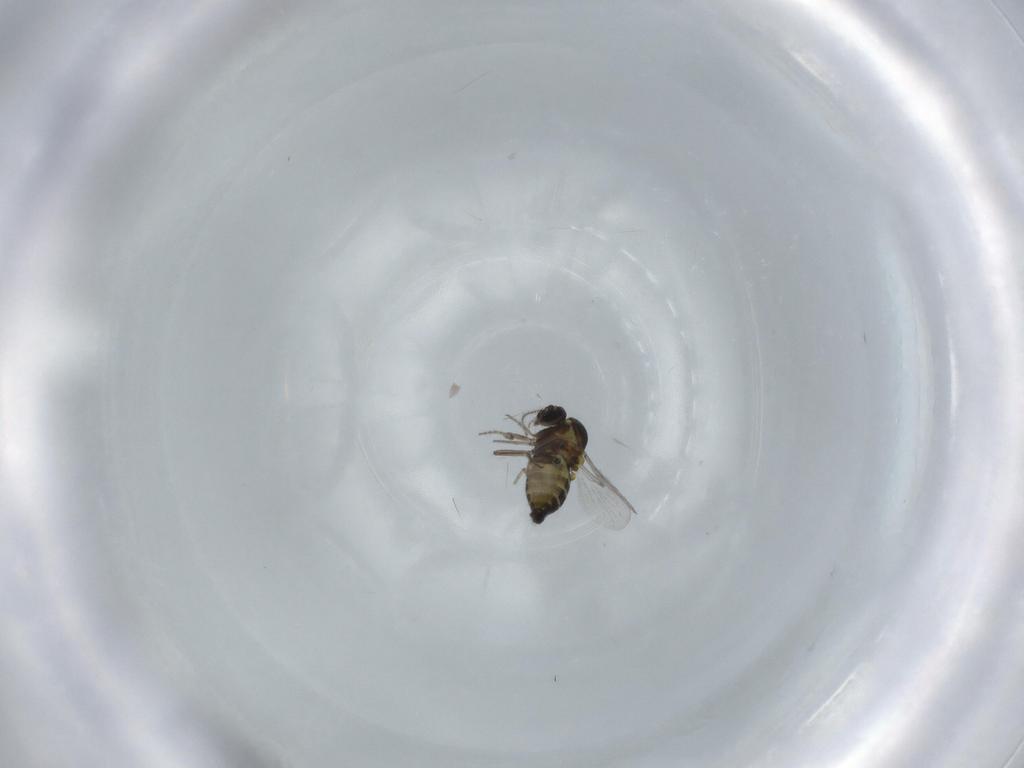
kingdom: Animalia
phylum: Arthropoda
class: Insecta
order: Diptera
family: Ceratopogonidae
